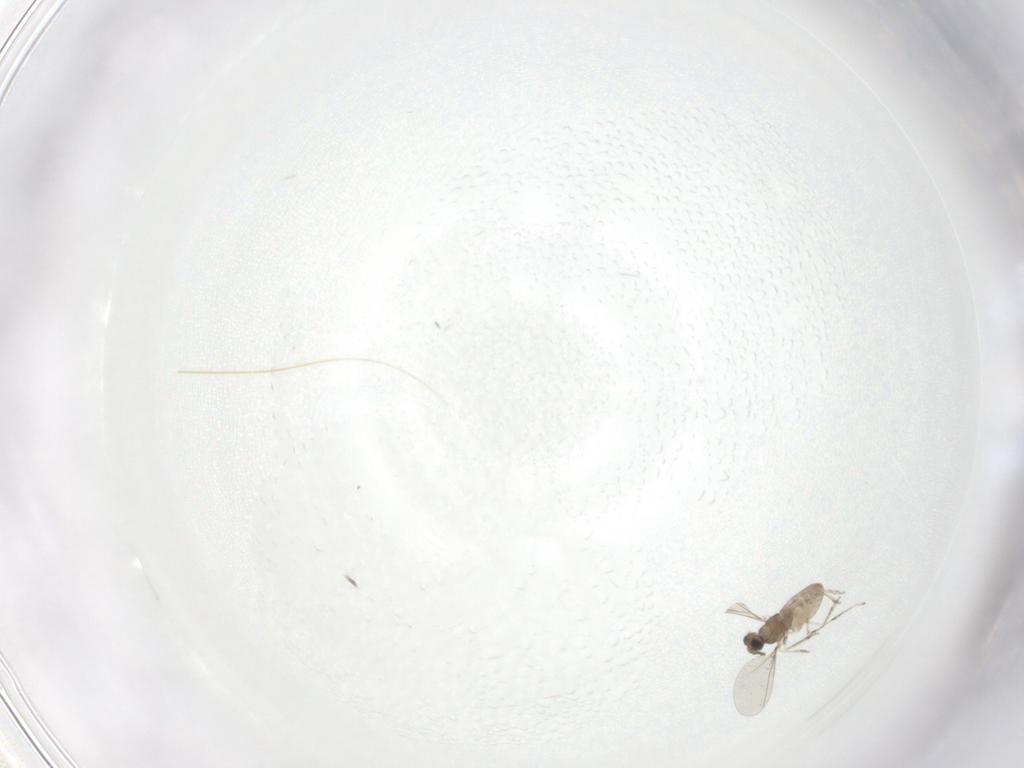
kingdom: Animalia
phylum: Arthropoda
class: Insecta
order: Diptera
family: Cecidomyiidae
